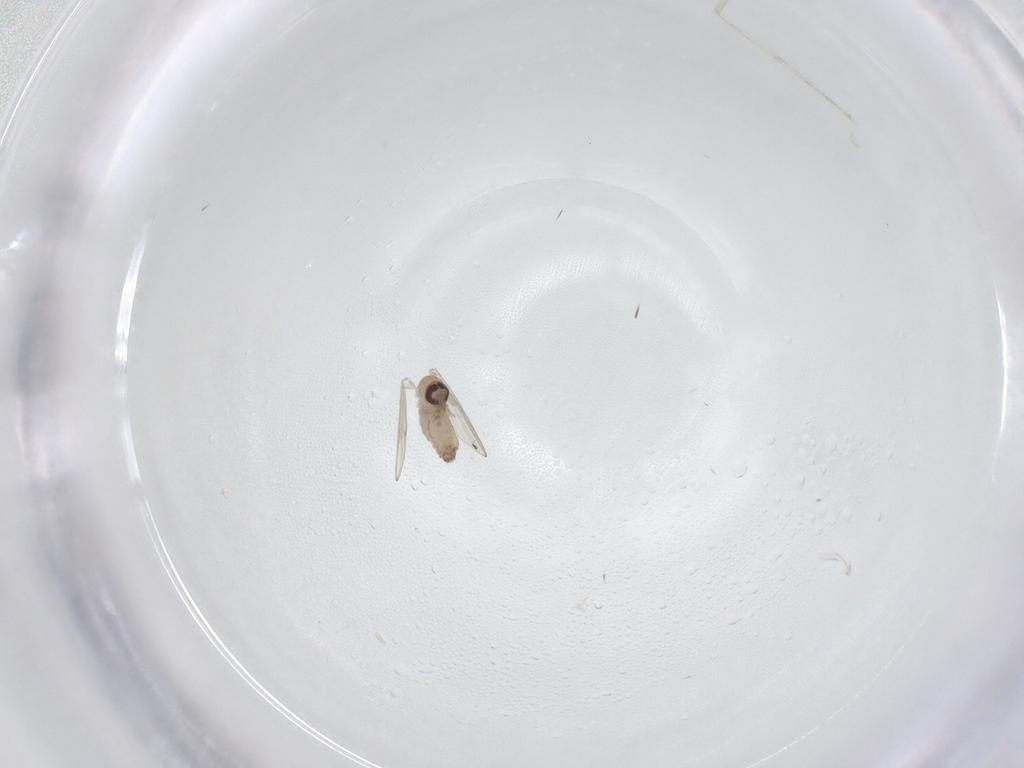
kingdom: Animalia
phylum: Arthropoda
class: Insecta
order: Diptera
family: Psychodidae
